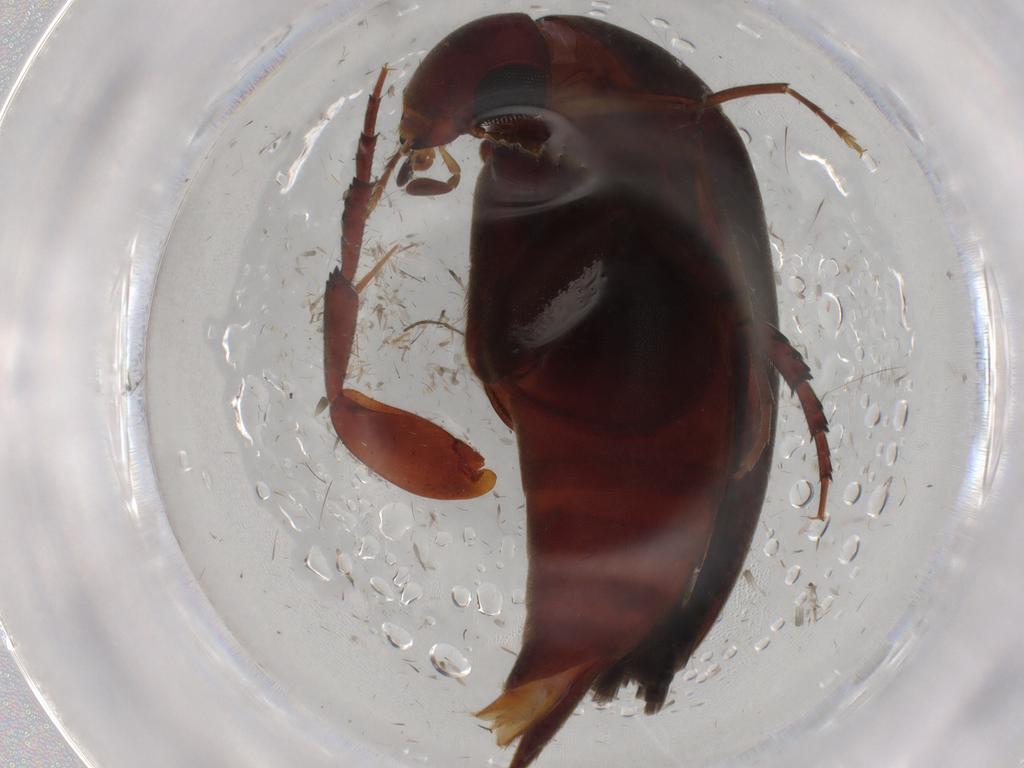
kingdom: Animalia
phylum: Arthropoda
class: Insecta
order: Coleoptera
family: Mordellidae
